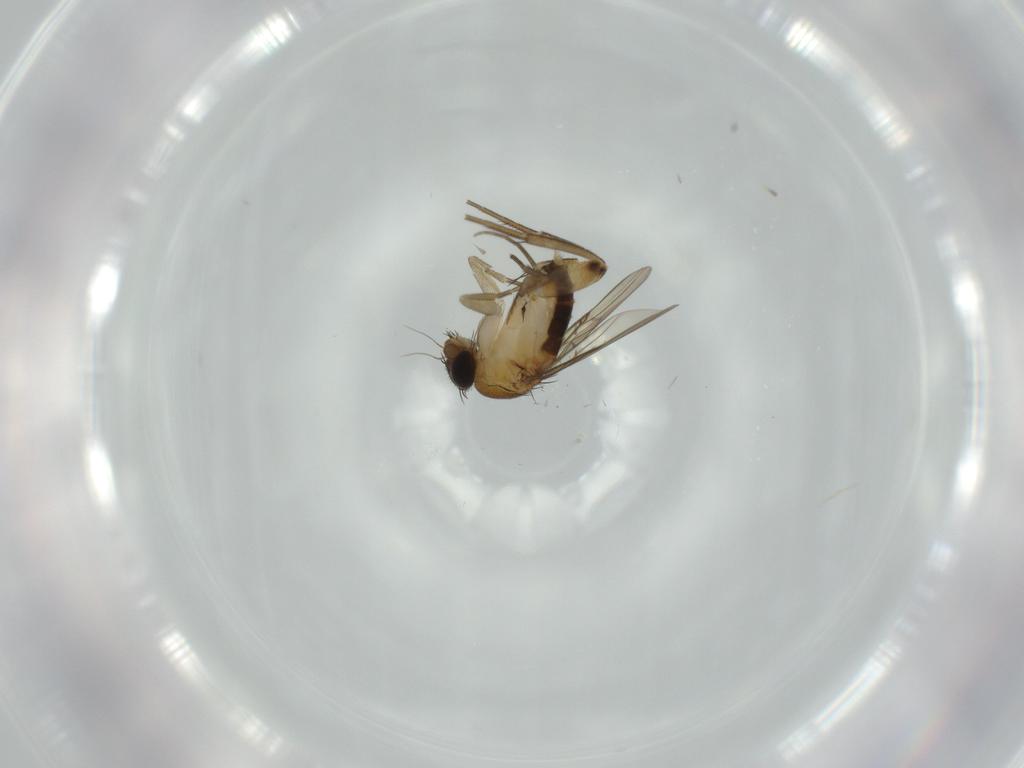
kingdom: Animalia
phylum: Arthropoda
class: Insecta
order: Diptera
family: Phoridae
